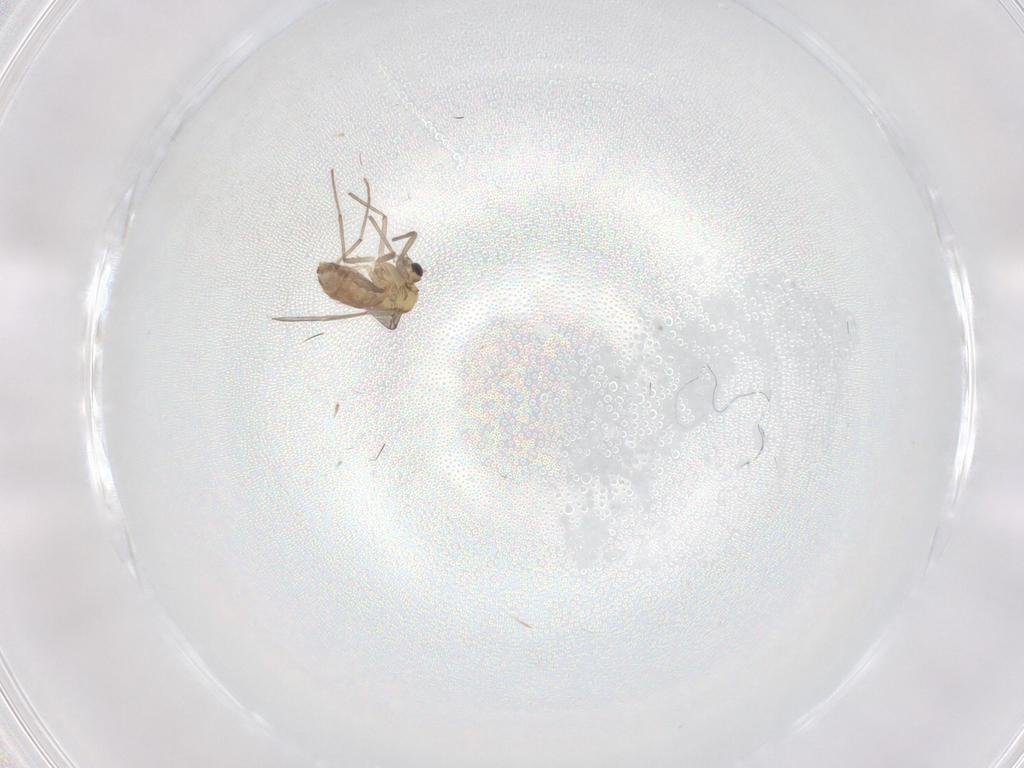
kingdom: Animalia
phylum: Arthropoda
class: Insecta
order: Diptera
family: Chironomidae
